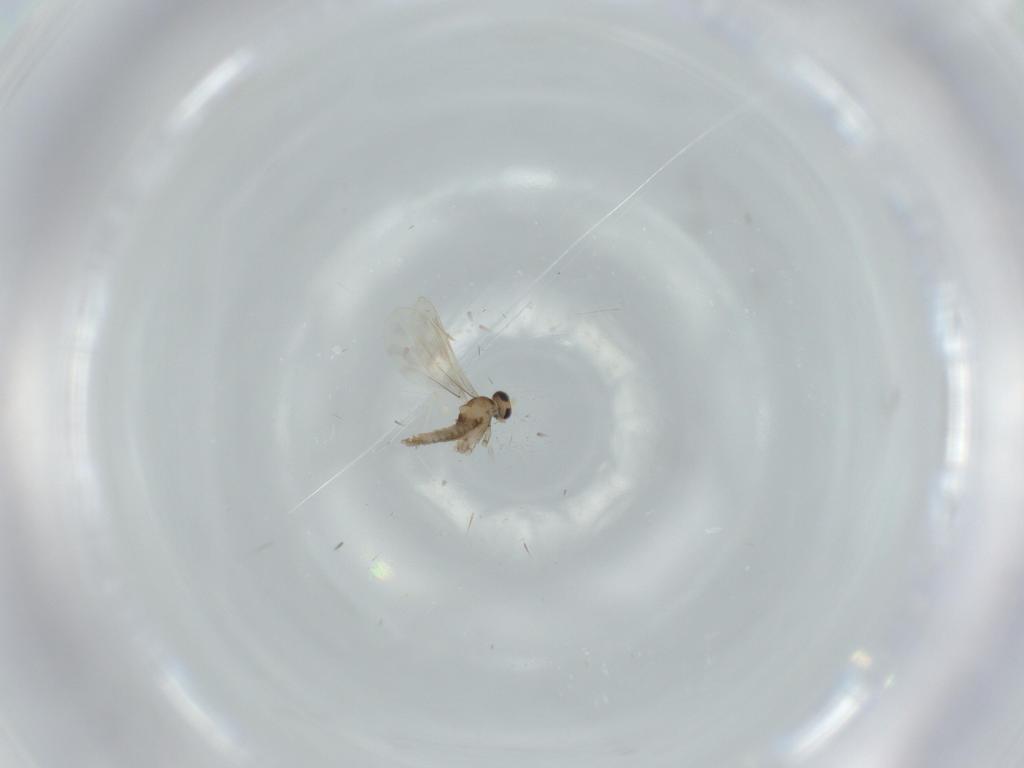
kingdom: Animalia
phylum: Arthropoda
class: Insecta
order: Diptera
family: Cecidomyiidae
